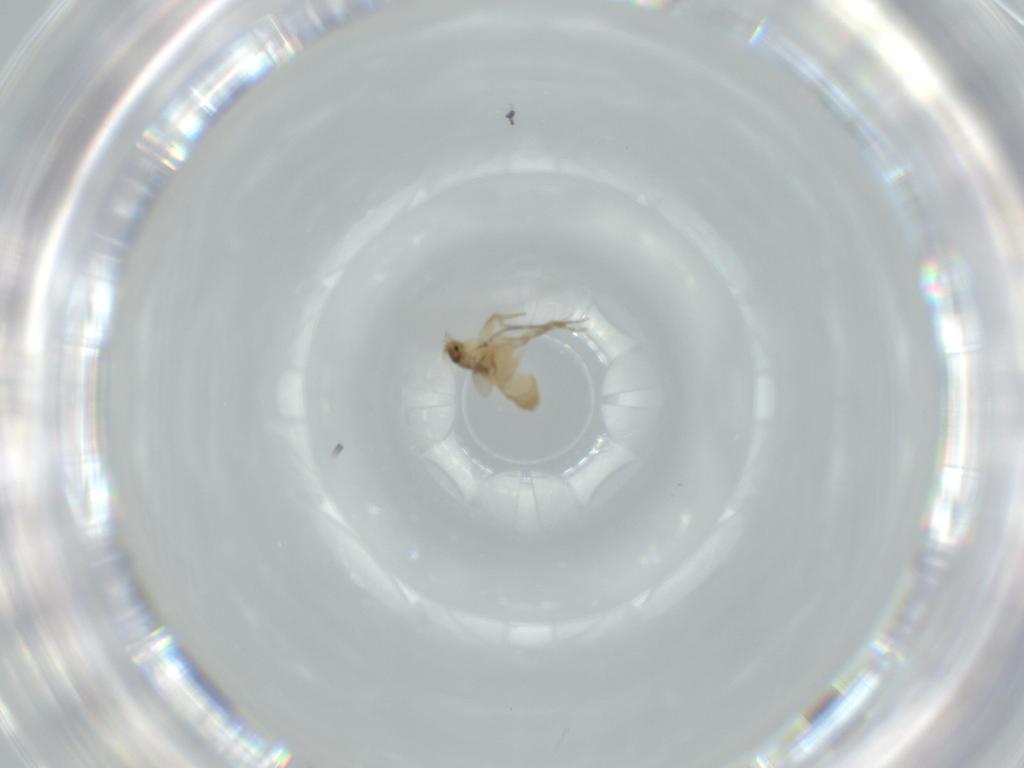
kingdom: Animalia
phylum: Arthropoda
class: Insecta
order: Diptera
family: Phoridae
